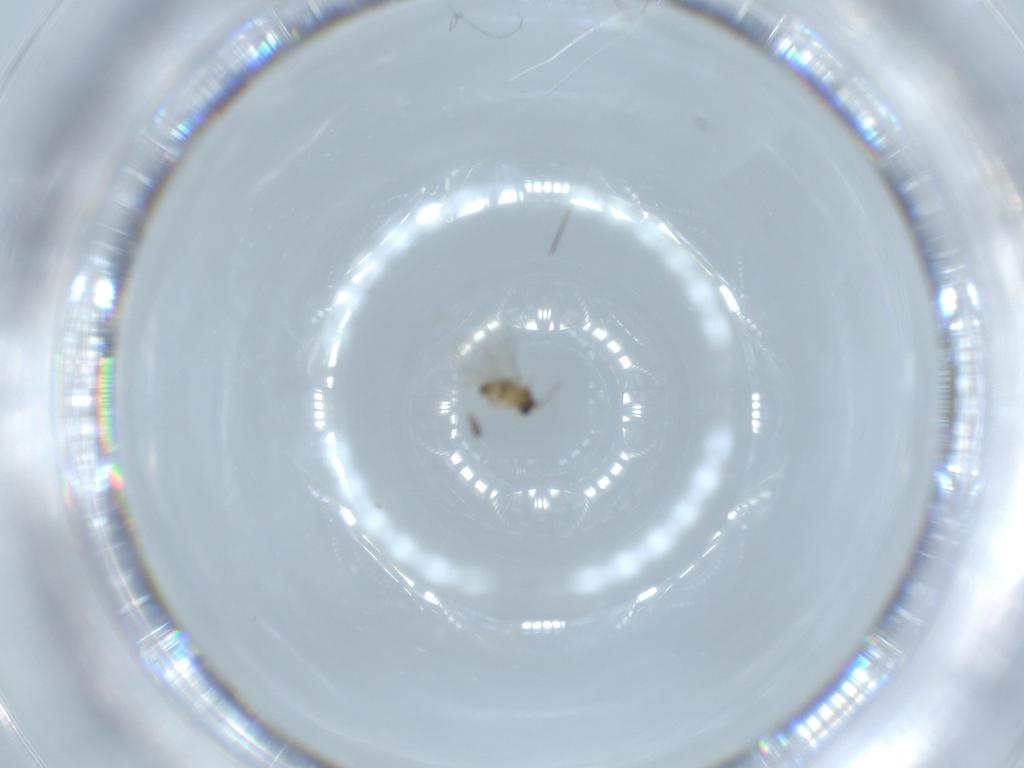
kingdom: Animalia
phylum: Arthropoda
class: Insecta
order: Diptera
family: Cecidomyiidae
